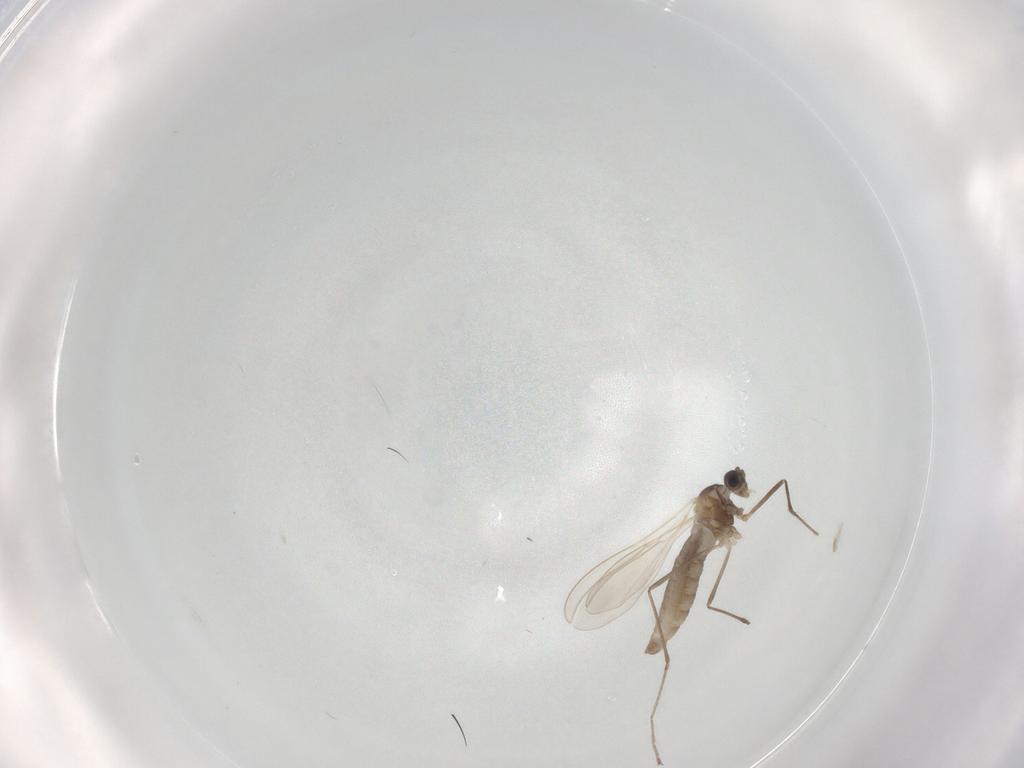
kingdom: Animalia
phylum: Arthropoda
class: Insecta
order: Diptera
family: Cecidomyiidae
